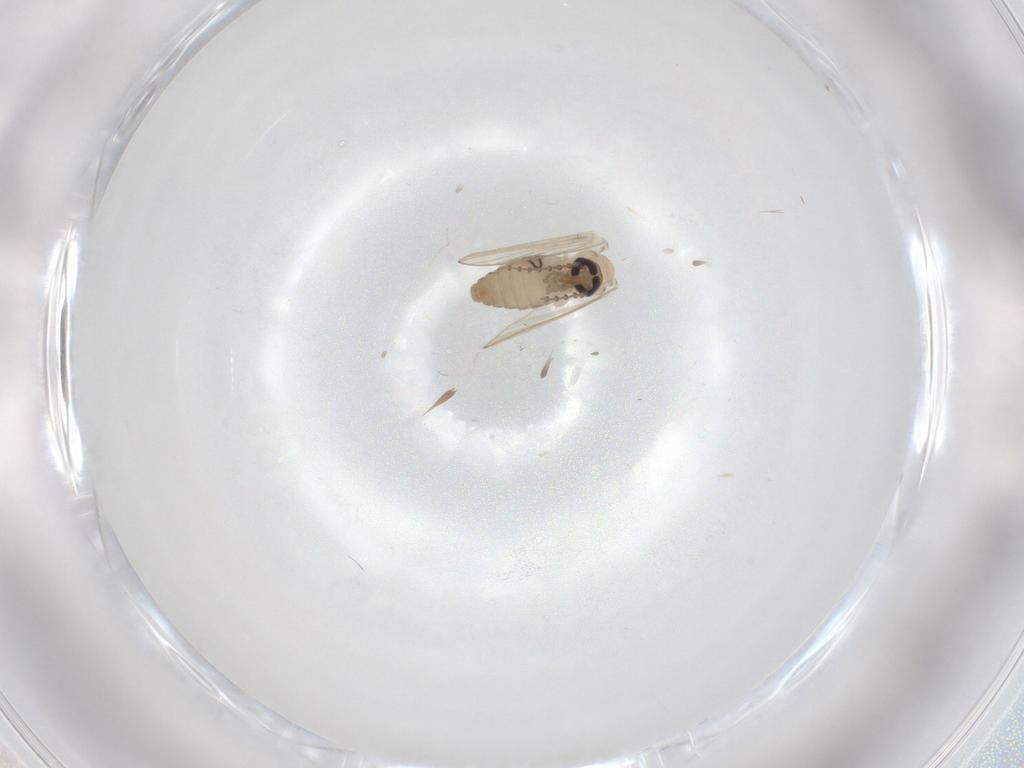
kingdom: Animalia
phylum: Arthropoda
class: Insecta
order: Diptera
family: Psychodidae
